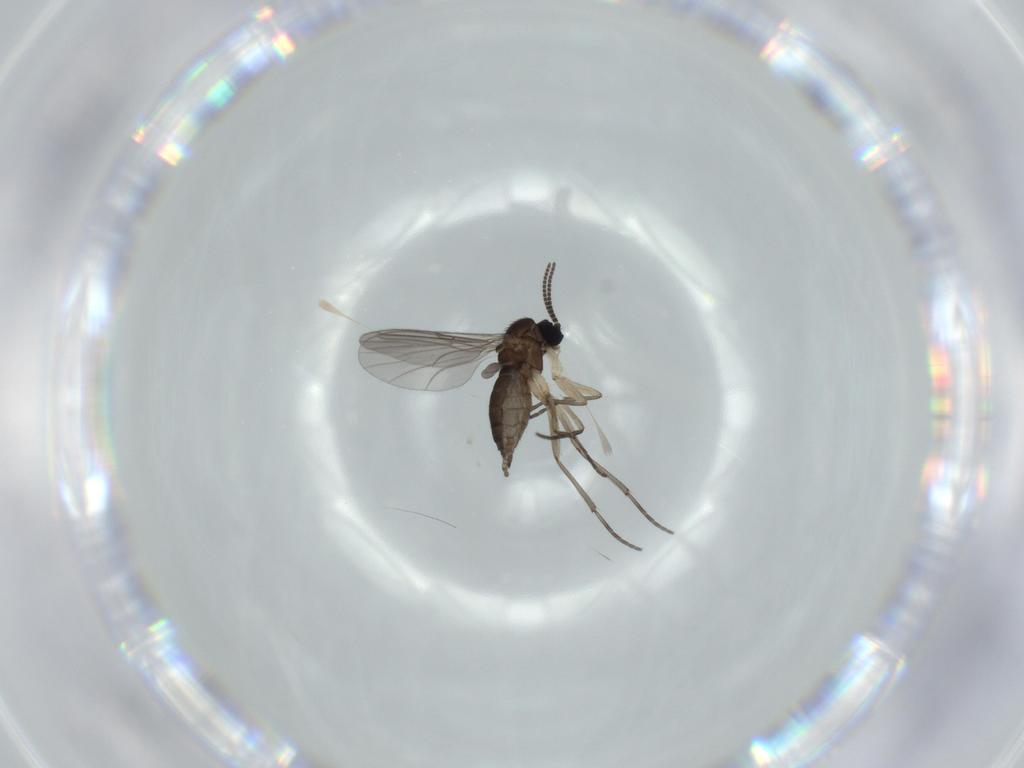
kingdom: Animalia
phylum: Arthropoda
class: Insecta
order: Diptera
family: Sciaridae
